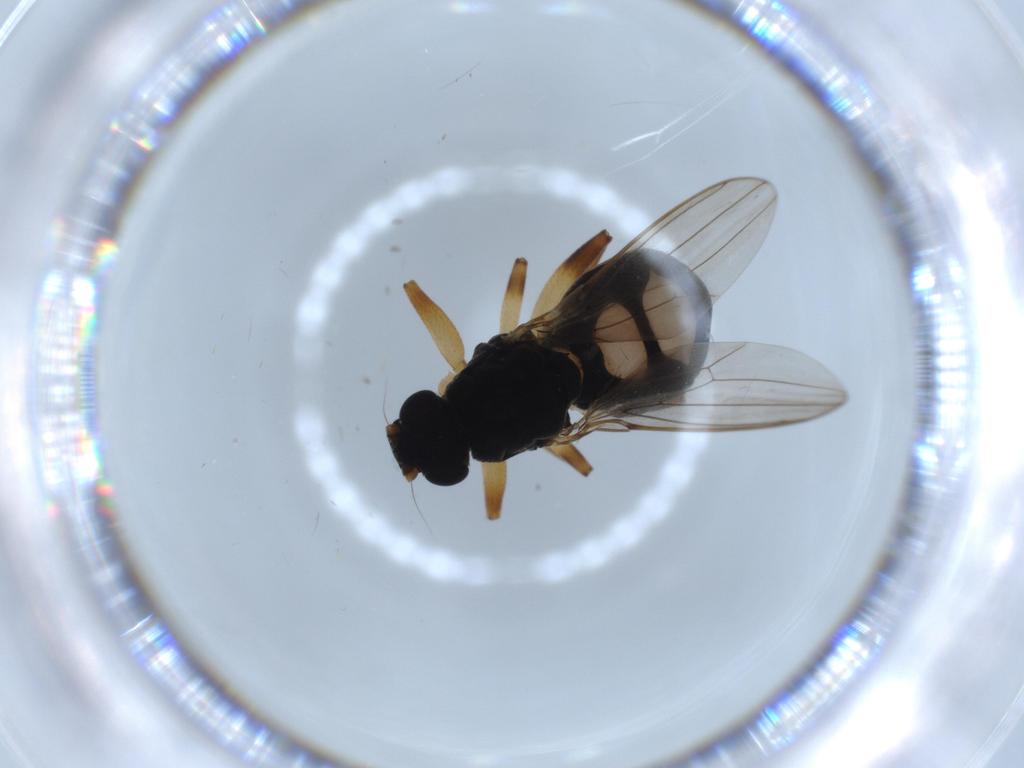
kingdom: Animalia
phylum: Arthropoda
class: Insecta
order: Diptera
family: Sphaeroceridae
